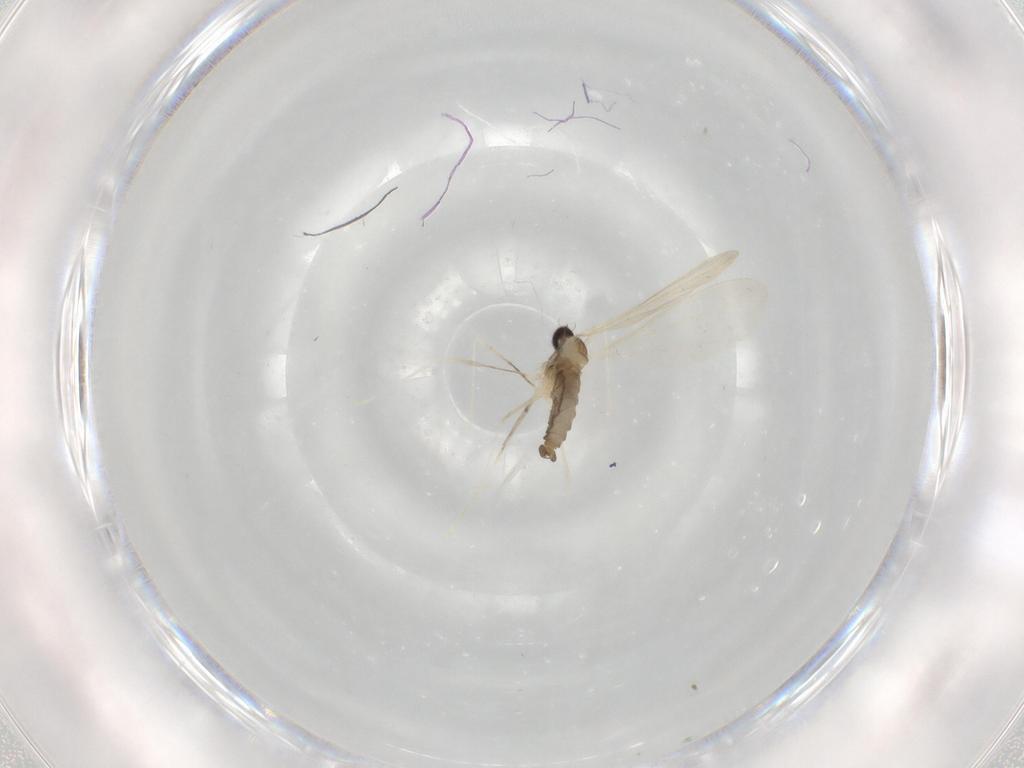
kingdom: Animalia
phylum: Arthropoda
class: Insecta
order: Diptera
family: Cecidomyiidae
